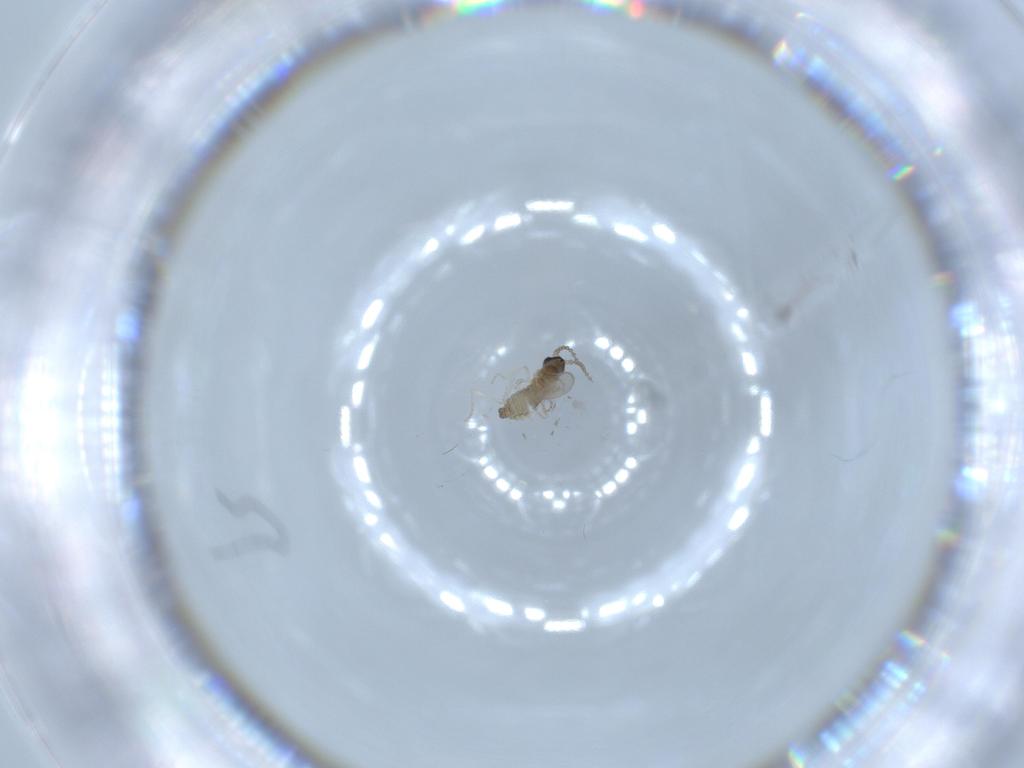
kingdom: Animalia
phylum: Arthropoda
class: Insecta
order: Diptera
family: Cecidomyiidae
